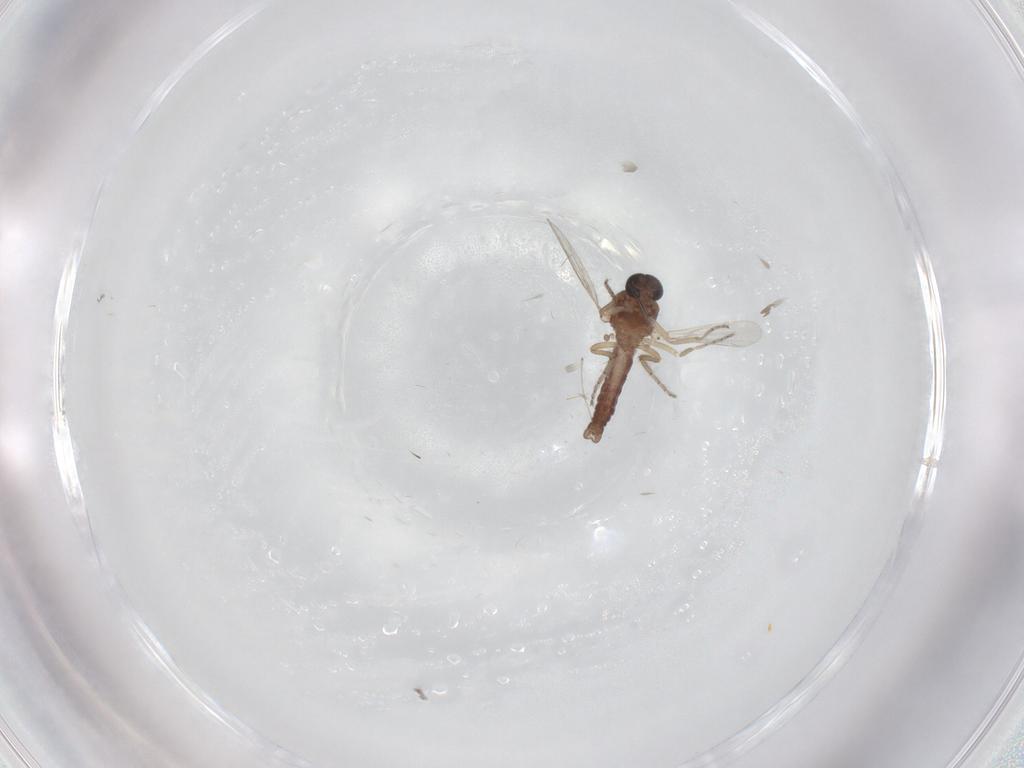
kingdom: Animalia
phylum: Arthropoda
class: Insecta
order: Diptera
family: Ceratopogonidae
